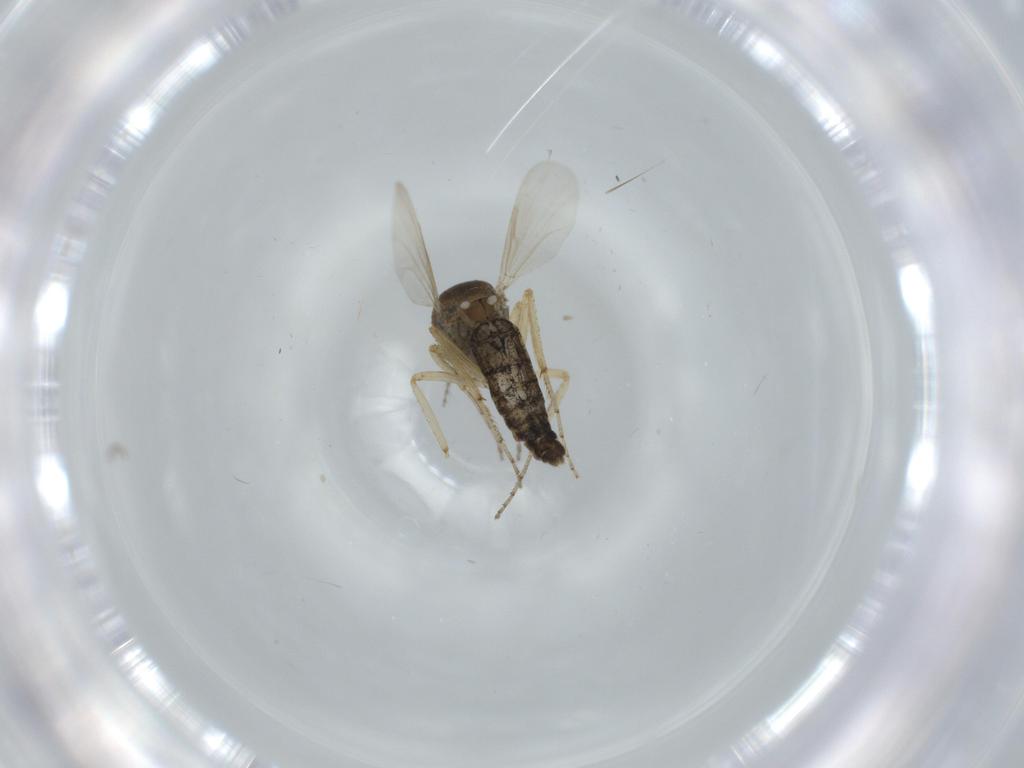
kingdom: Animalia
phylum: Arthropoda
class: Insecta
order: Diptera
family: Ceratopogonidae
